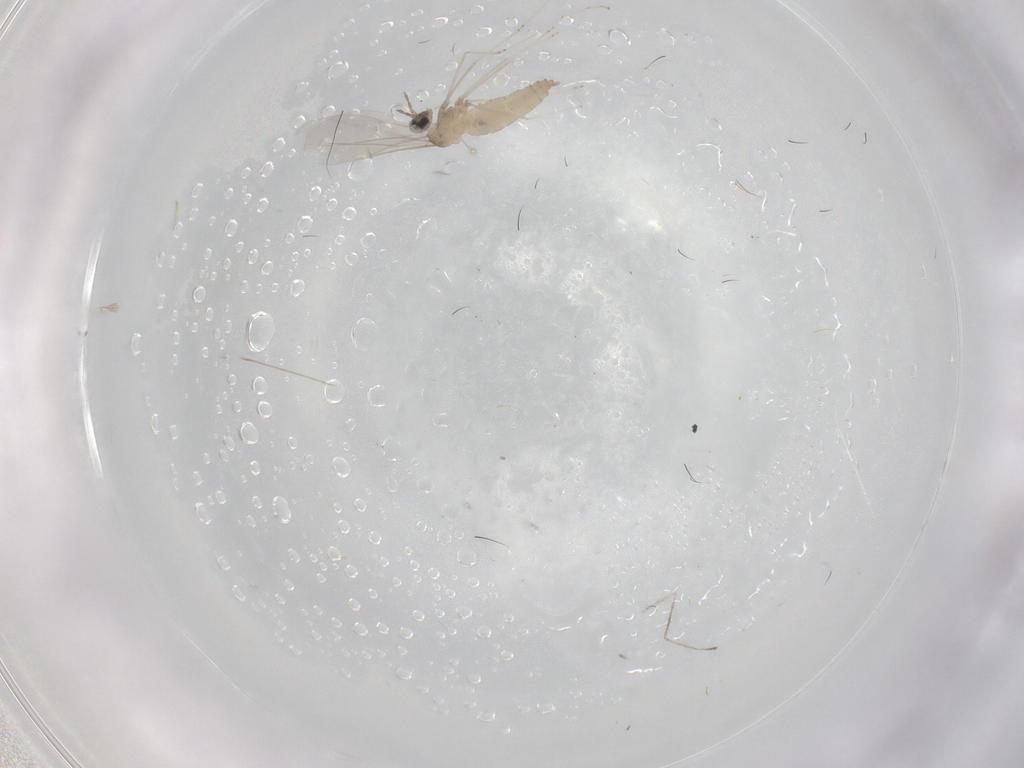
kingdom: Animalia
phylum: Arthropoda
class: Insecta
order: Diptera
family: Cecidomyiidae
